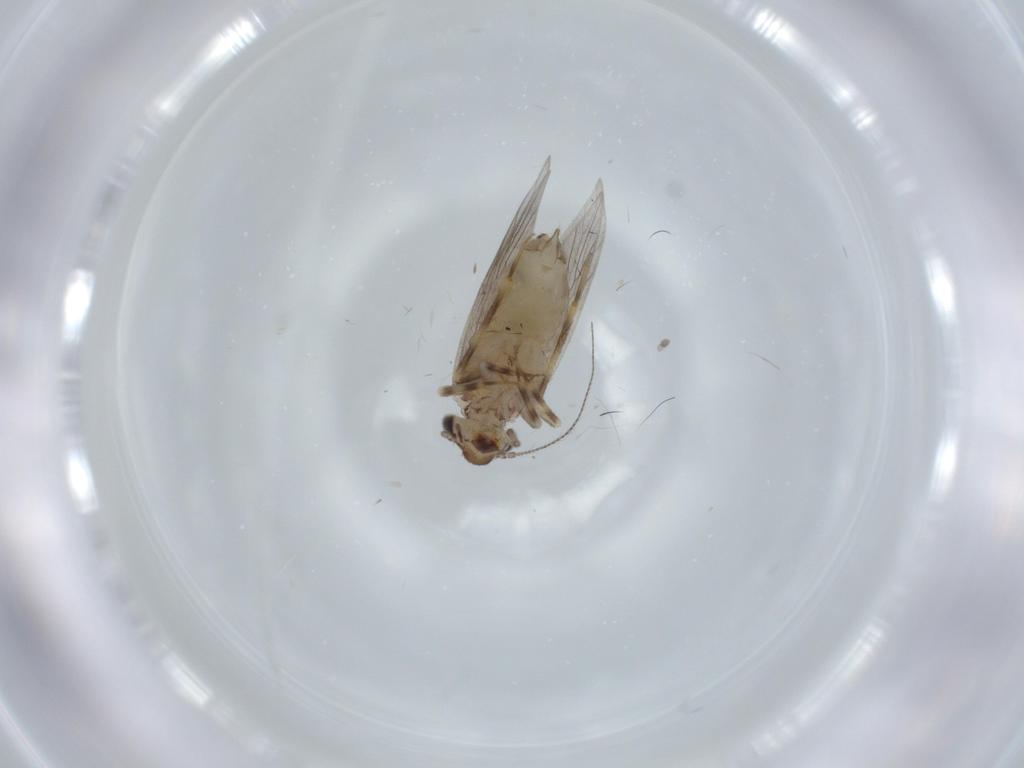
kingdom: Animalia
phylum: Arthropoda
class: Insecta
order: Psocodea
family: Lepidopsocidae
